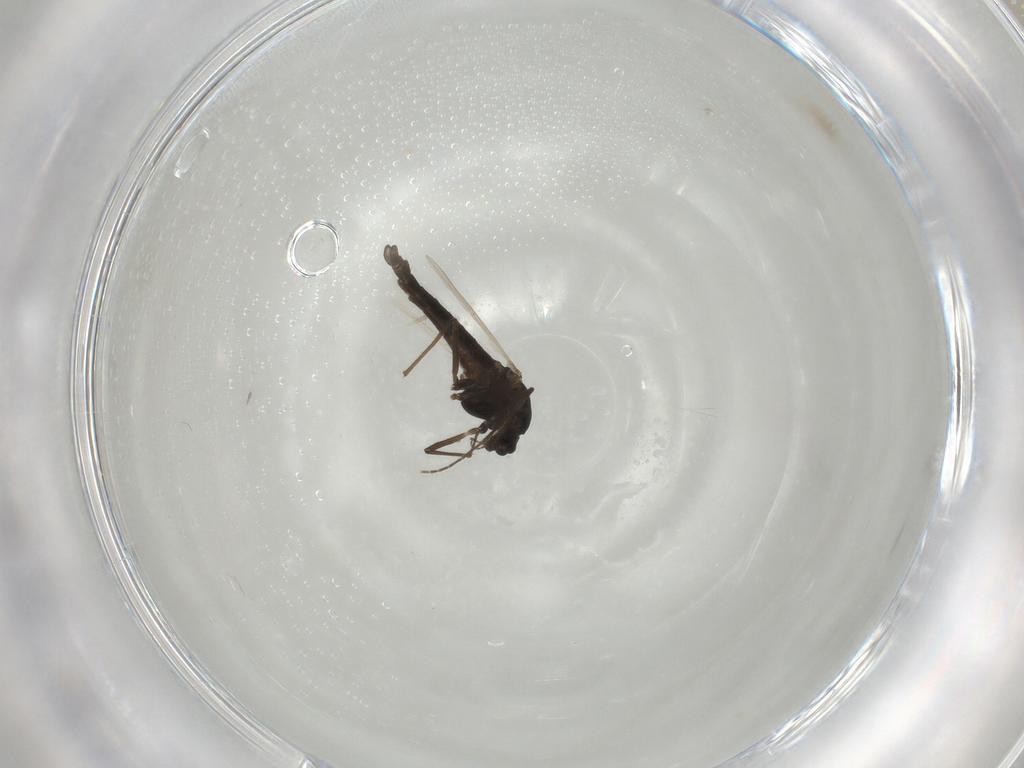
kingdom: Animalia
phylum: Arthropoda
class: Insecta
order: Diptera
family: Chironomidae
